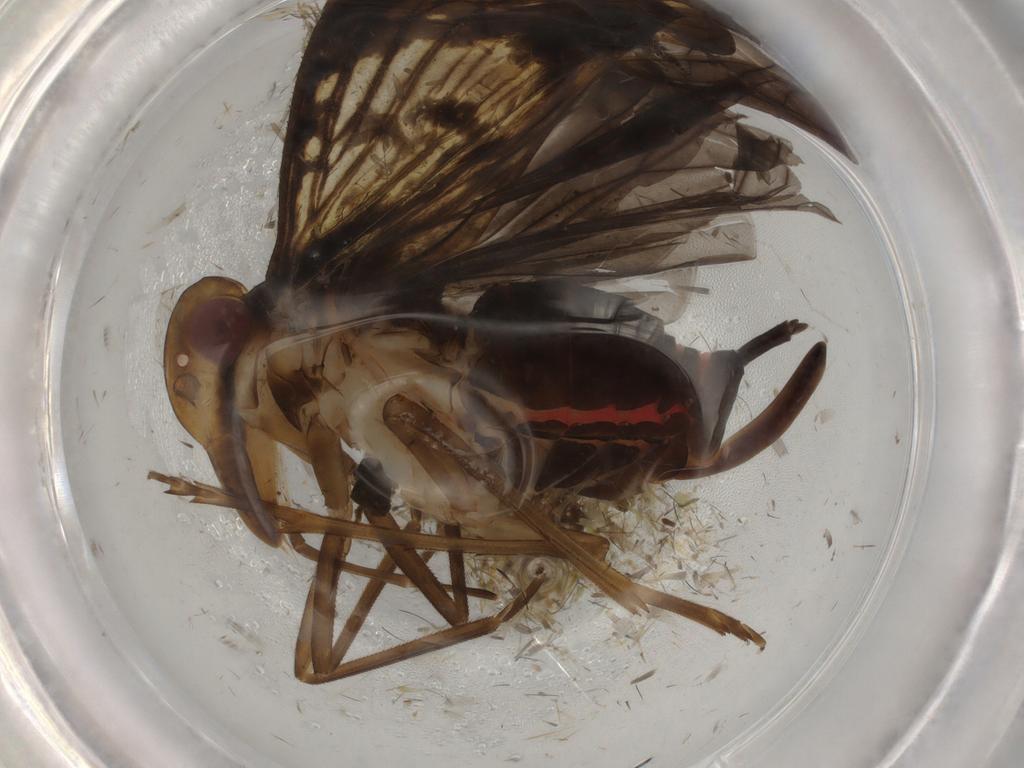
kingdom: Animalia
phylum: Arthropoda
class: Insecta
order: Hemiptera
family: Cixiidae
